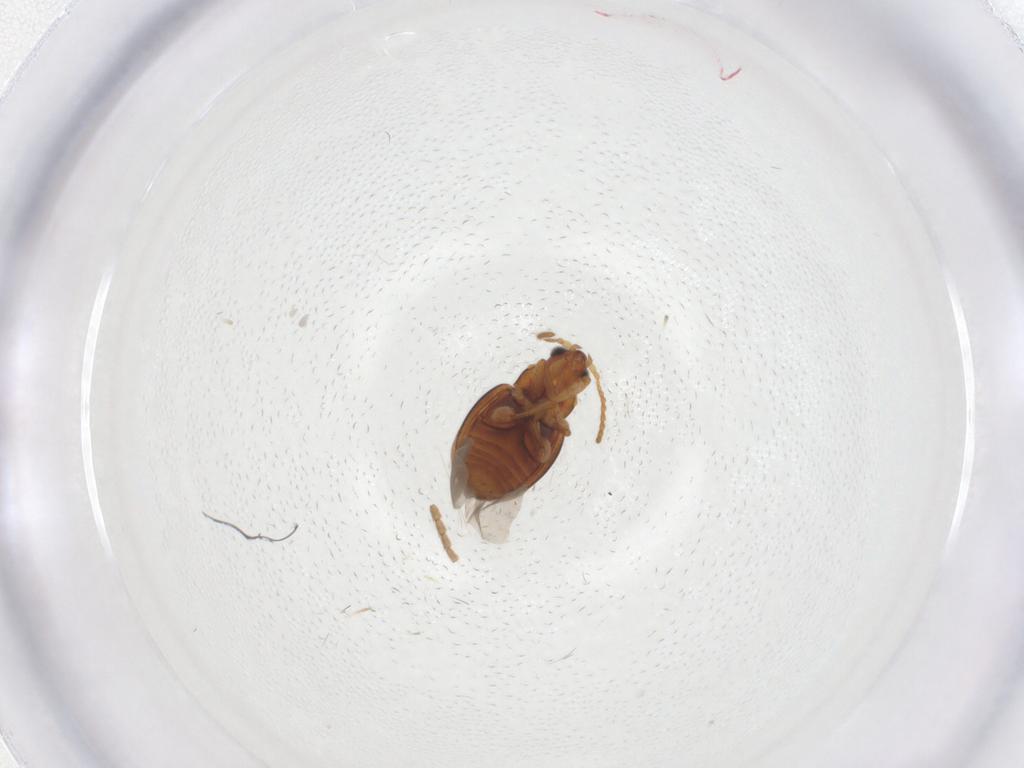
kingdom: Animalia
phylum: Arthropoda
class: Insecta
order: Coleoptera
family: Chrysomelidae
